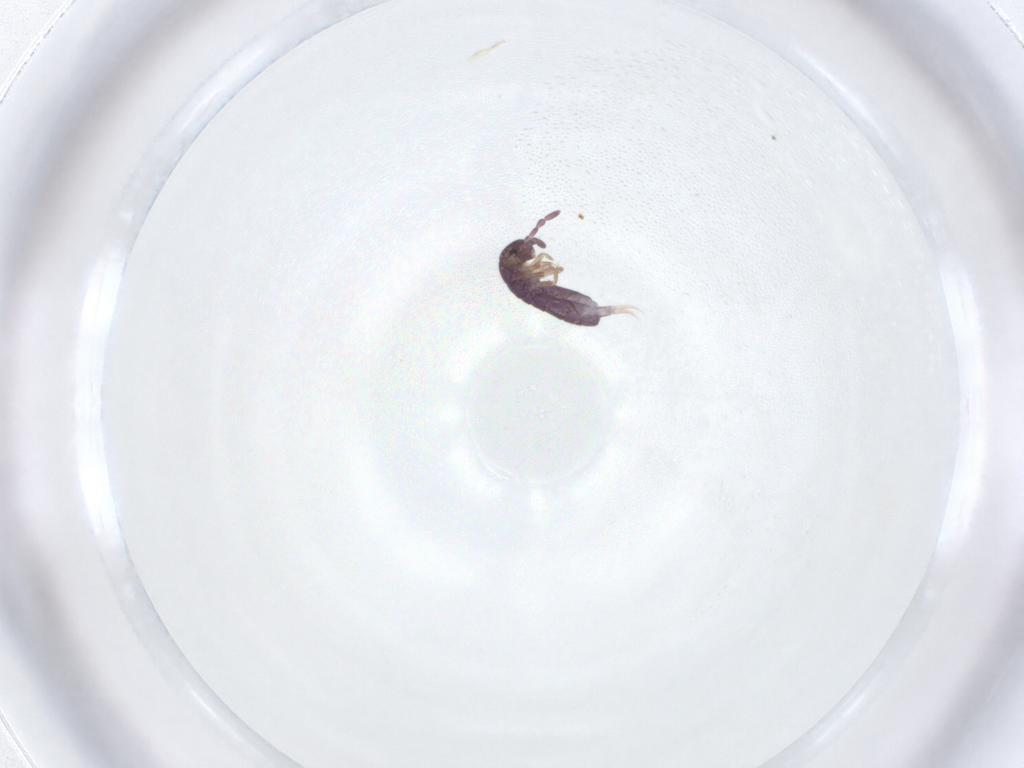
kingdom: Animalia
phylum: Arthropoda
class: Collembola
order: Entomobryomorpha
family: Isotomidae
